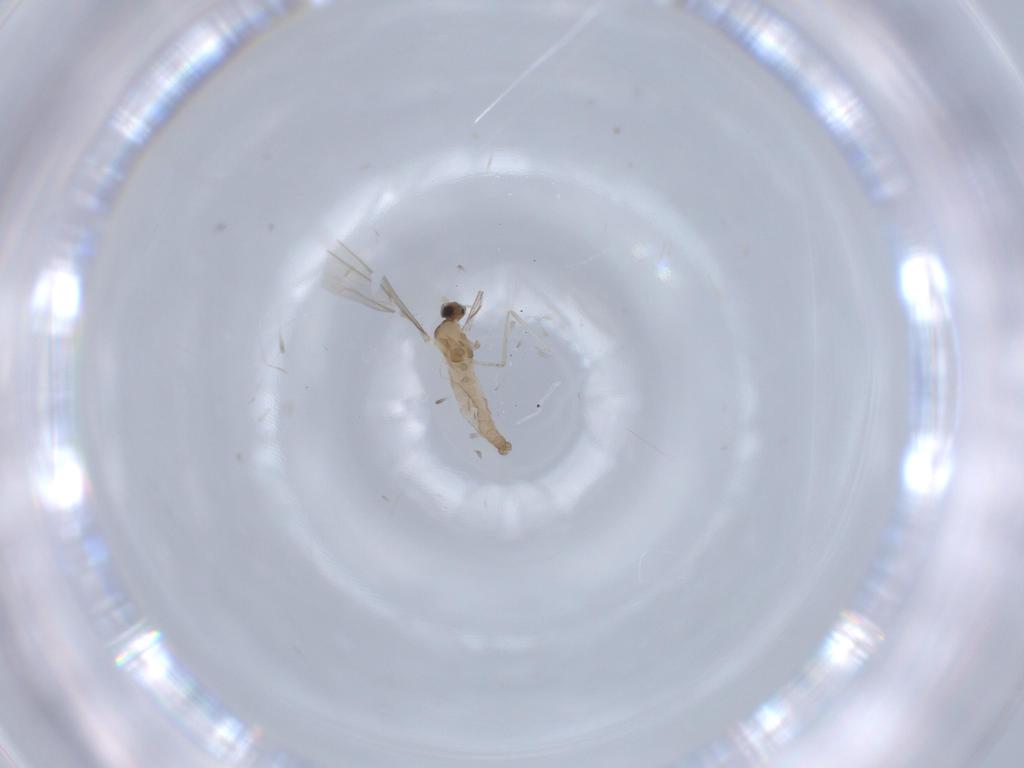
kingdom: Animalia
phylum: Arthropoda
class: Insecta
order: Diptera
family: Cecidomyiidae
